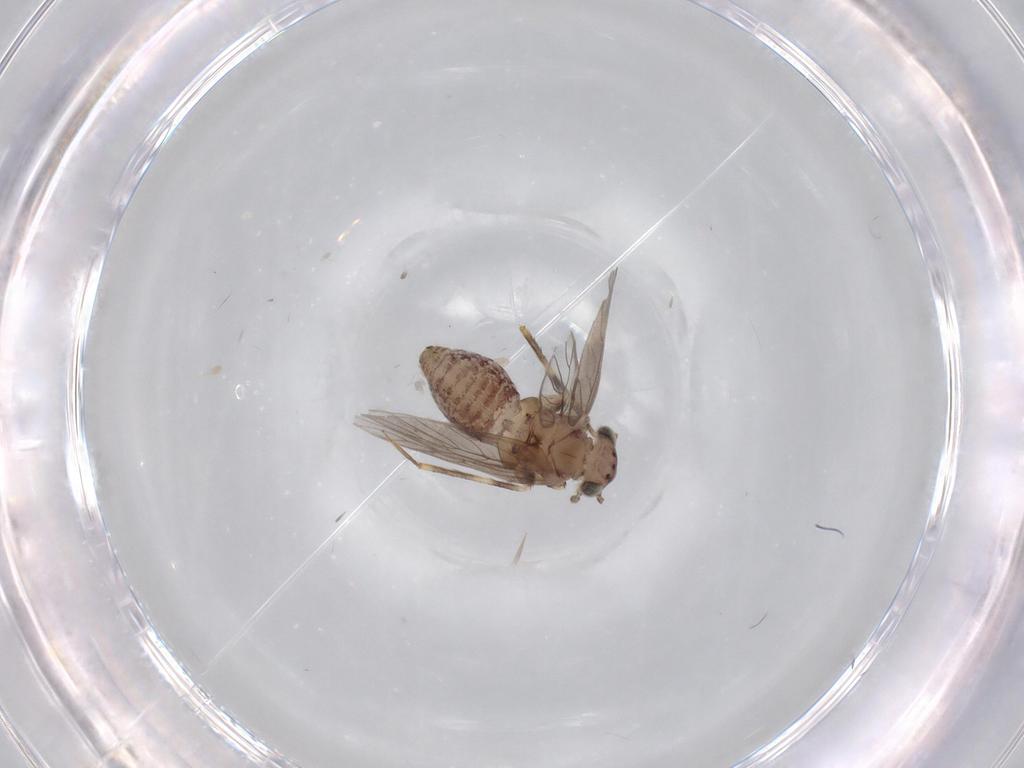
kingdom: Animalia
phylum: Arthropoda
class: Insecta
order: Psocodea
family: Lepidopsocidae
